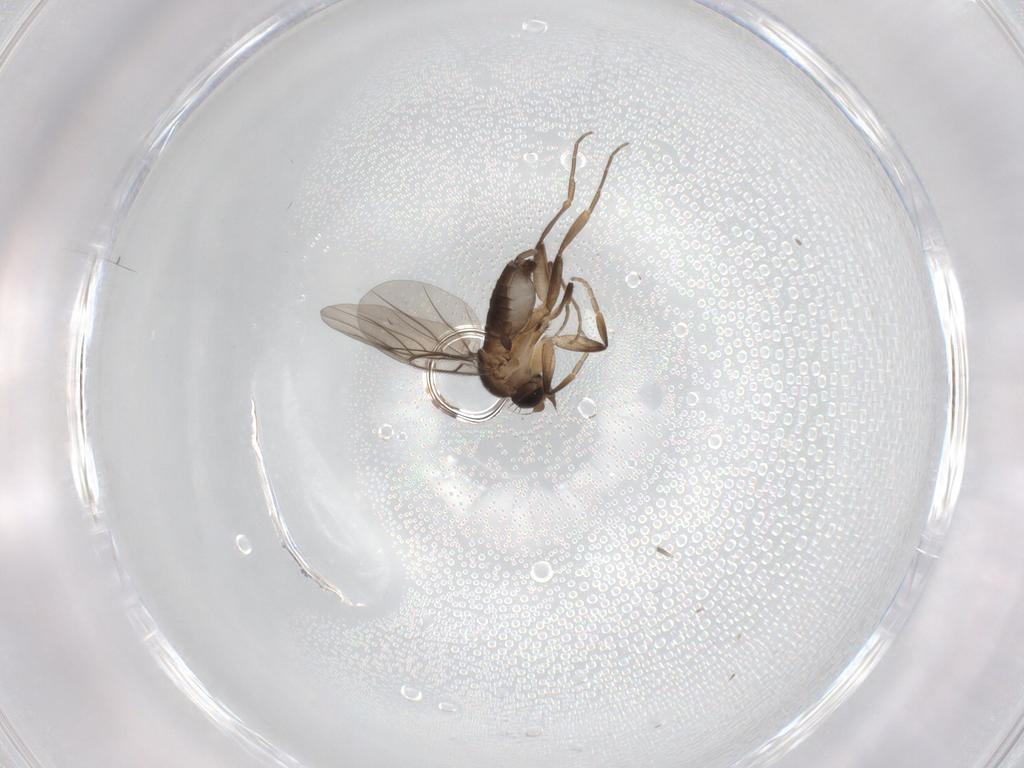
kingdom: Animalia
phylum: Arthropoda
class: Insecta
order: Diptera
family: Phoridae
